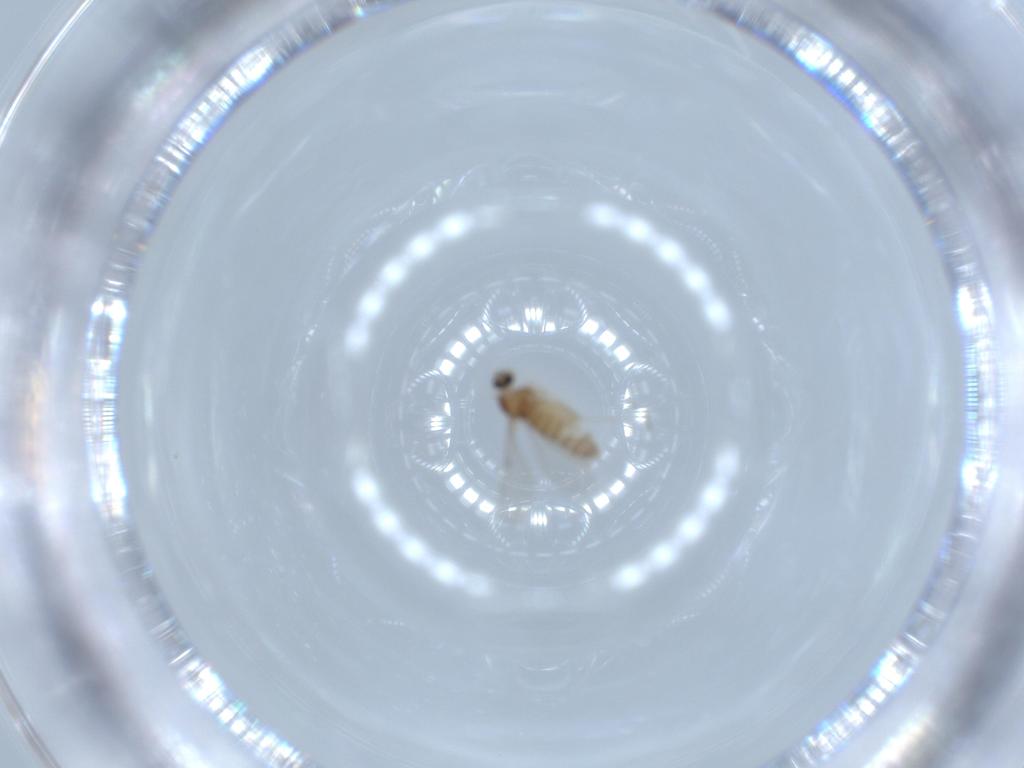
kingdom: Animalia
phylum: Arthropoda
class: Insecta
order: Diptera
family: Cecidomyiidae
